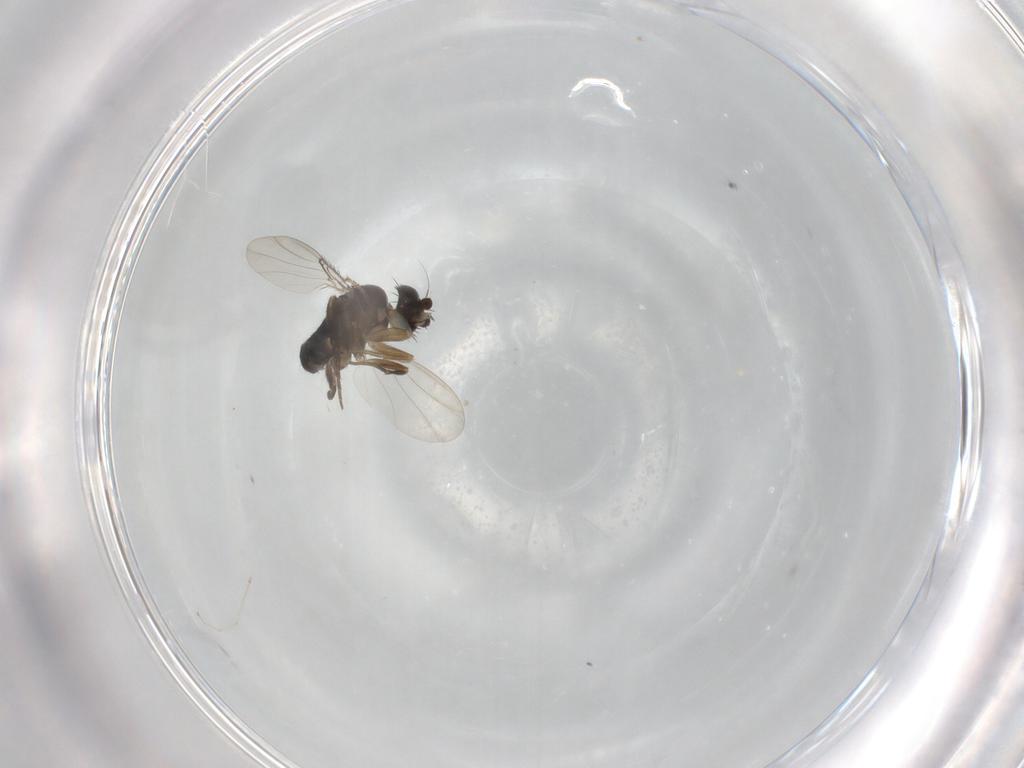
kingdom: Animalia
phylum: Arthropoda
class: Insecta
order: Diptera
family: Phoridae
